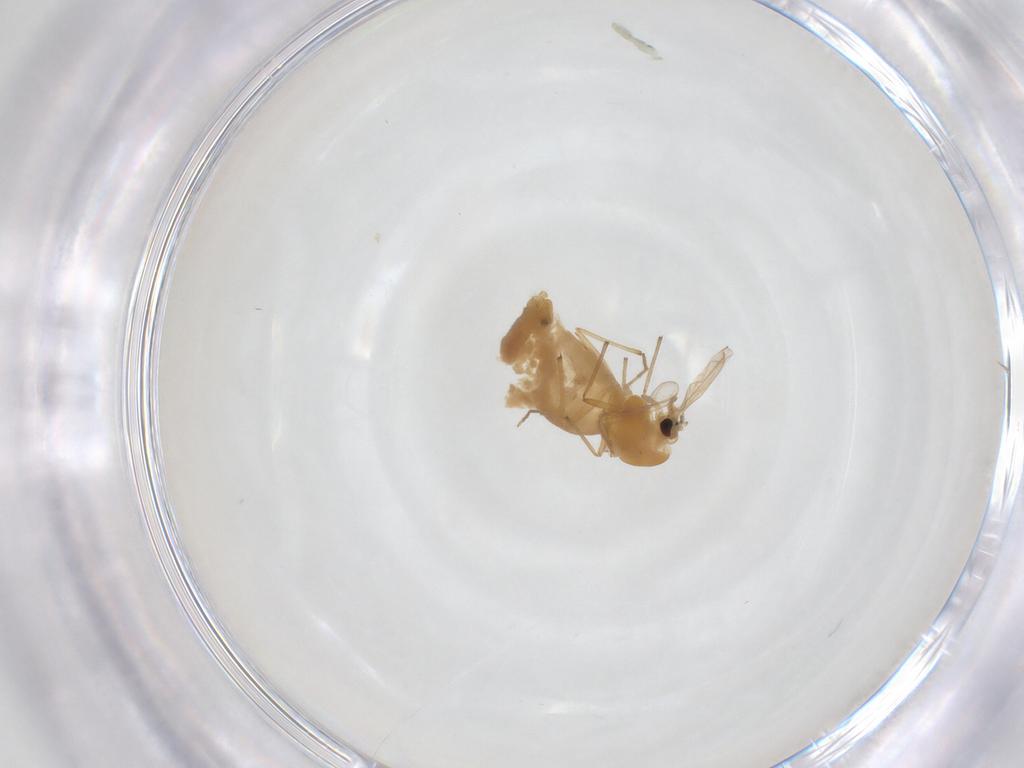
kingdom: Animalia
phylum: Arthropoda
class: Insecta
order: Diptera
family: Chironomidae
